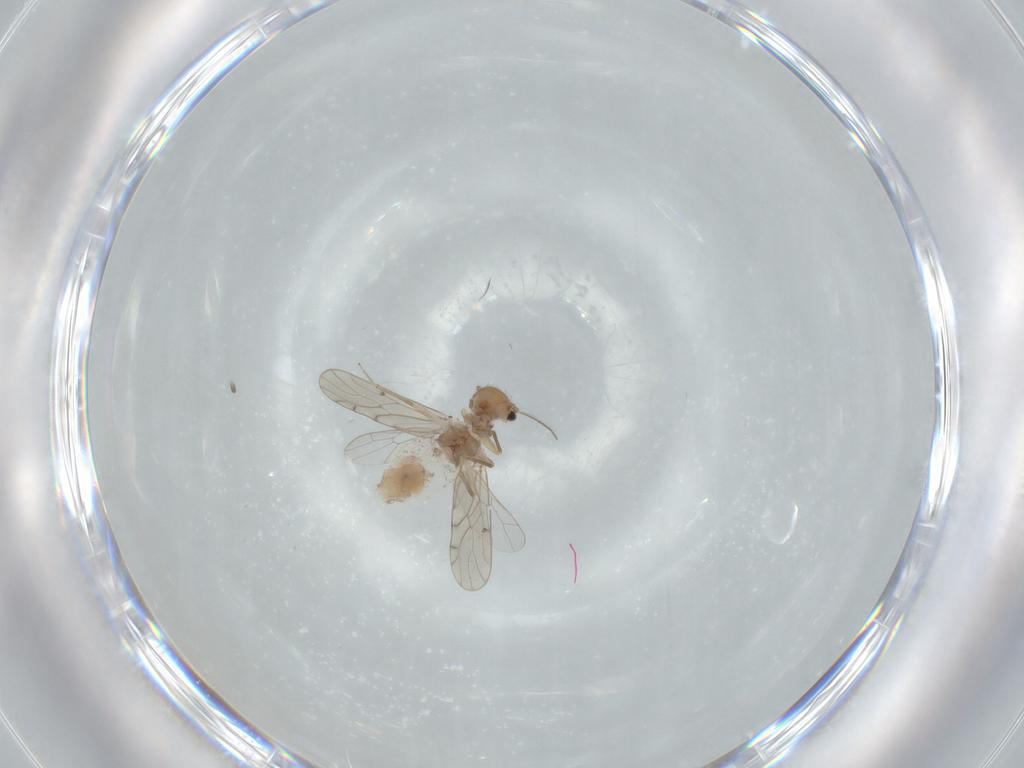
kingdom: Animalia
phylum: Arthropoda
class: Insecta
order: Psocodea
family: Ectopsocidae
